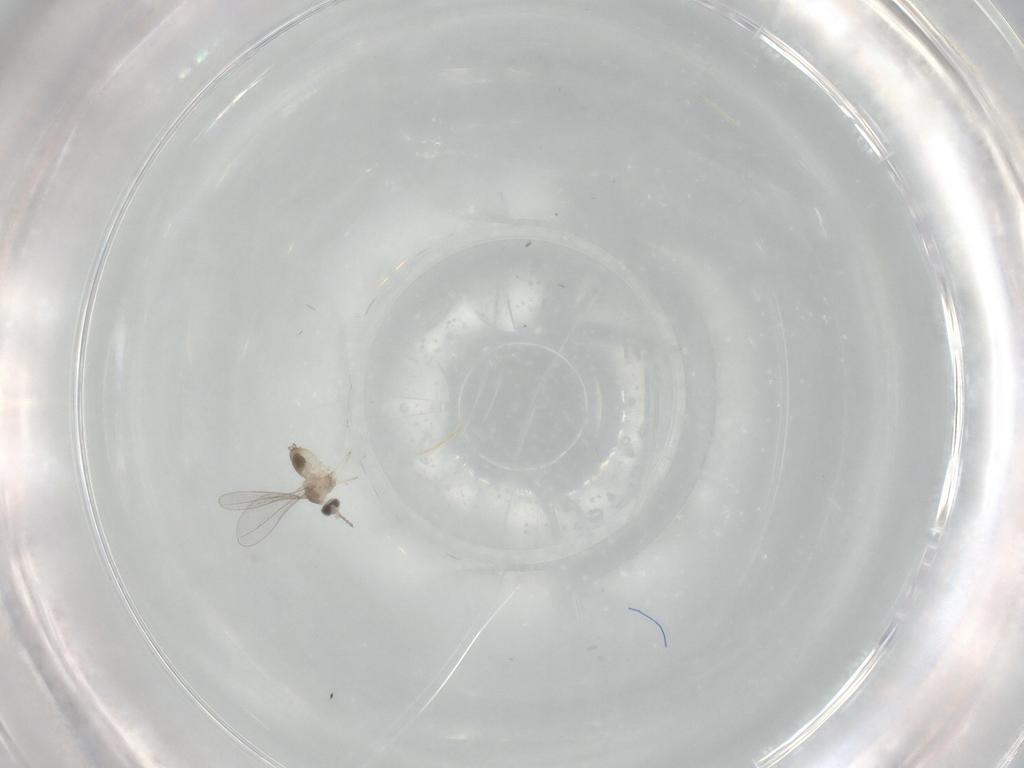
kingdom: Animalia
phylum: Arthropoda
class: Insecta
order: Diptera
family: Cecidomyiidae
